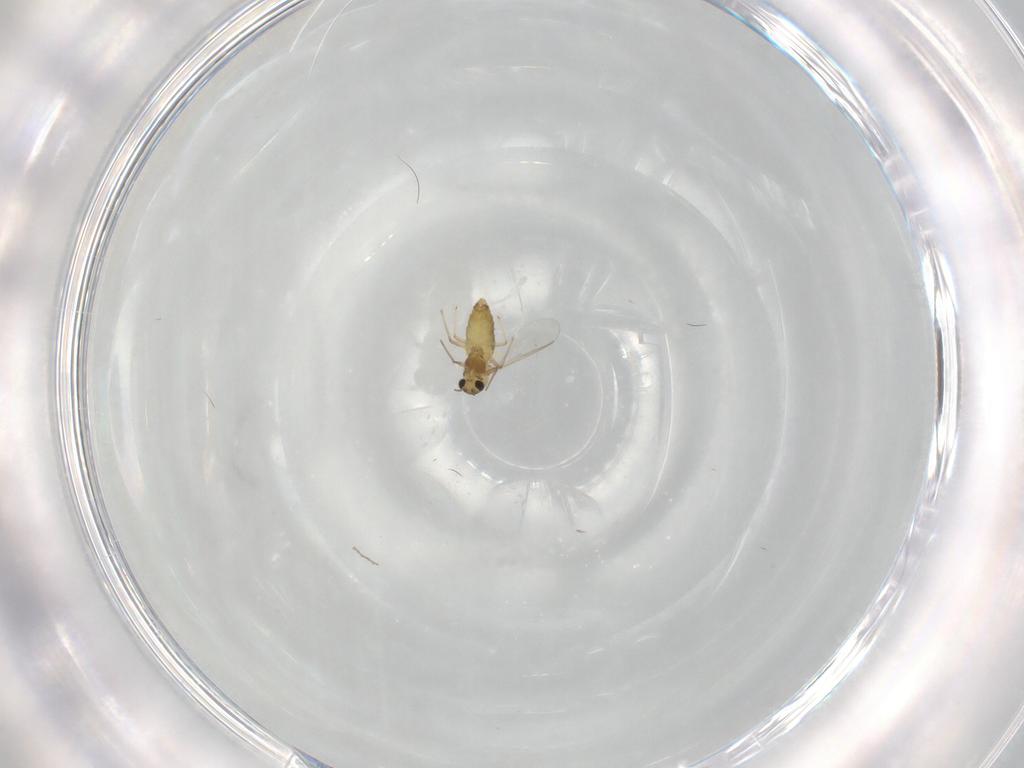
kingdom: Animalia
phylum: Arthropoda
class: Insecta
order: Diptera
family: Chironomidae
